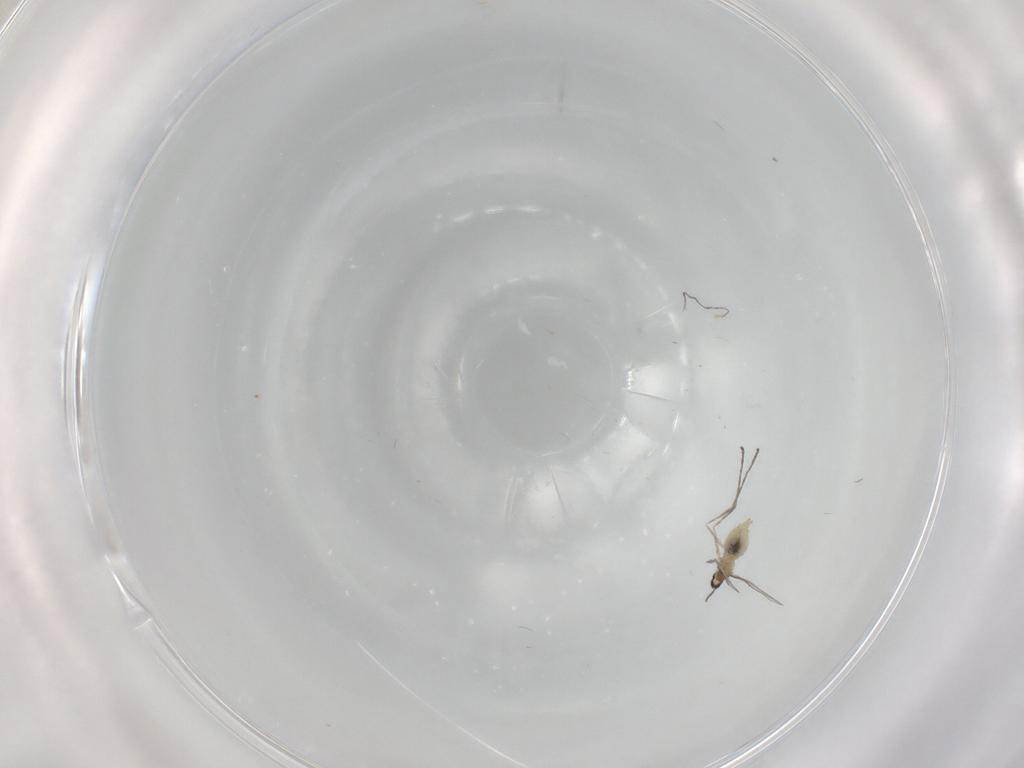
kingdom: Animalia
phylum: Arthropoda
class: Insecta
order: Diptera
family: Cecidomyiidae
